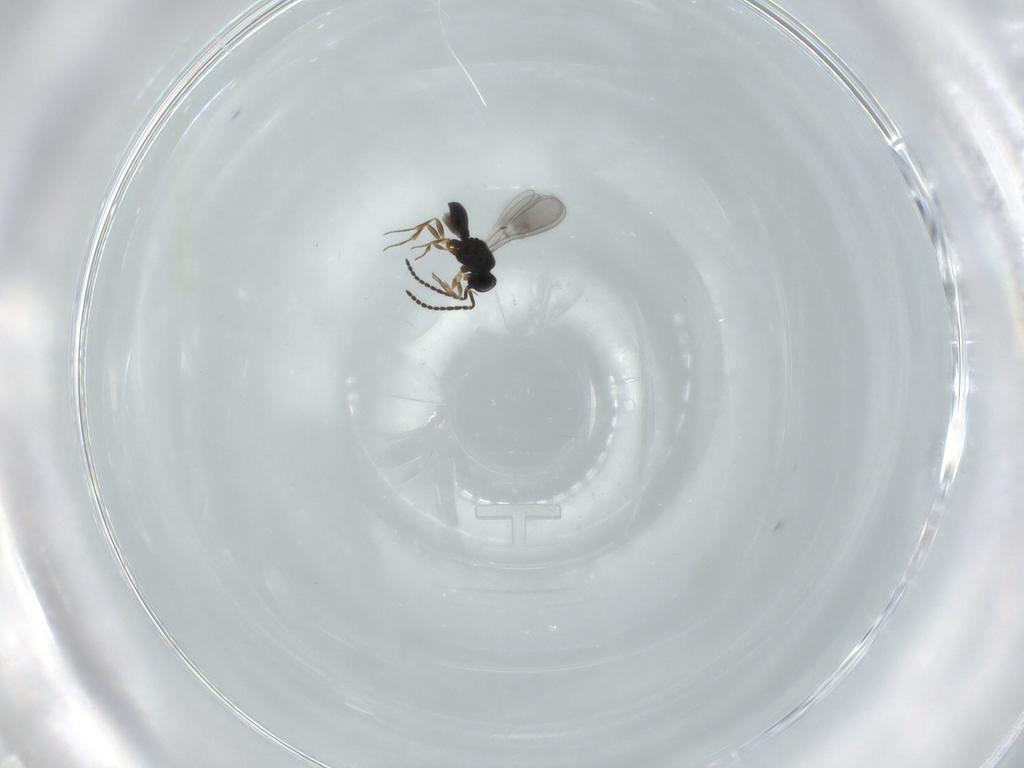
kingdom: Animalia
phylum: Arthropoda
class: Insecta
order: Hymenoptera
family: Scelionidae
